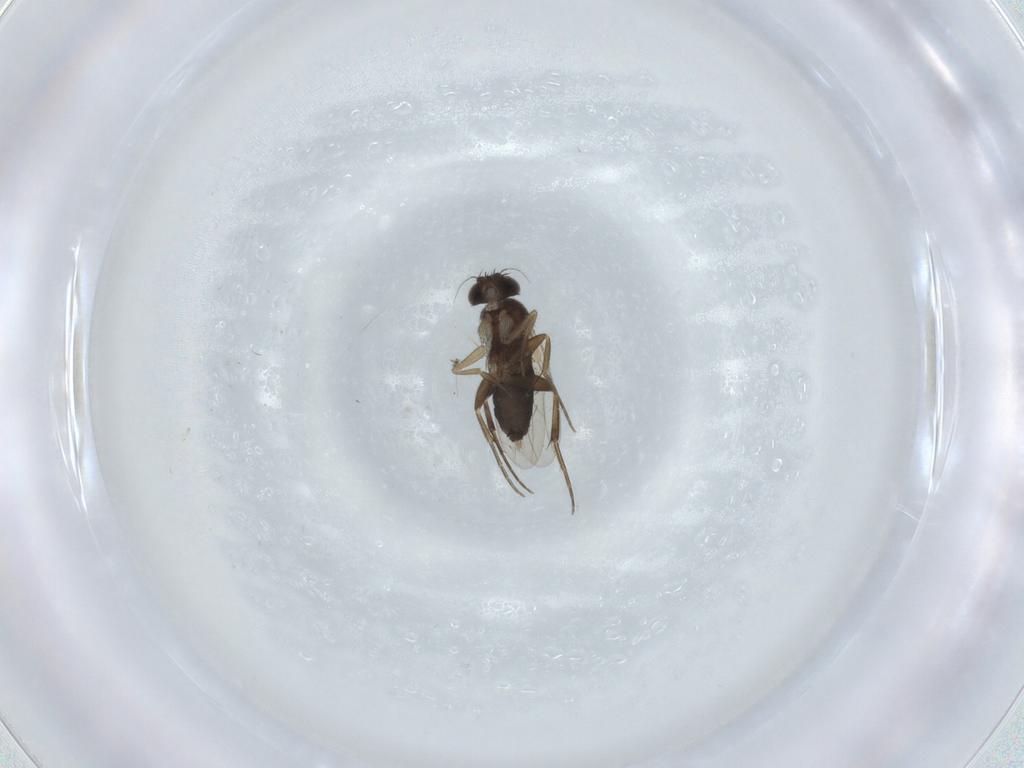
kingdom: Animalia
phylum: Arthropoda
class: Insecta
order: Diptera
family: Phoridae
